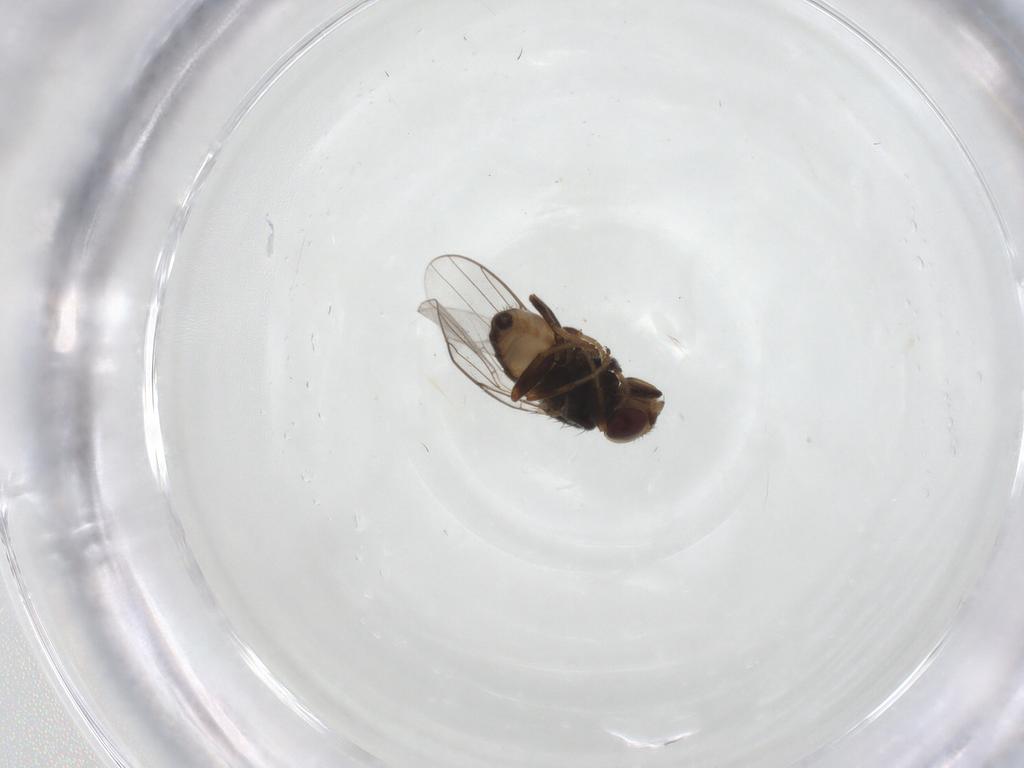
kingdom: Animalia
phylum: Arthropoda
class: Insecta
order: Diptera
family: Chloropidae
